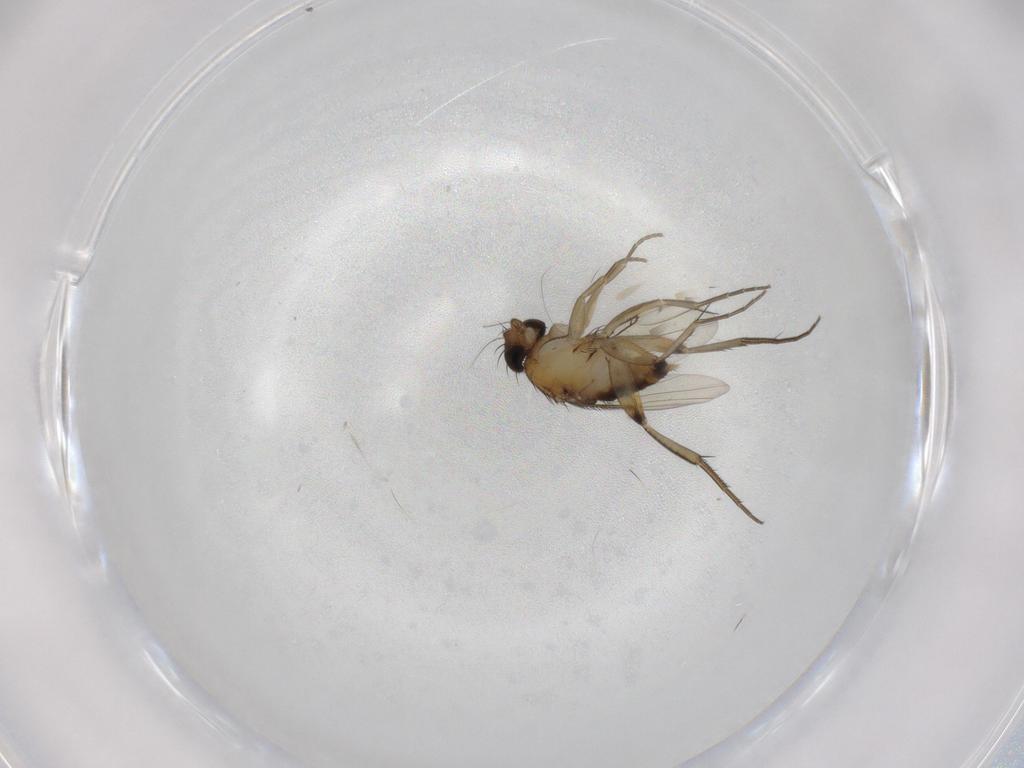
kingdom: Animalia
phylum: Arthropoda
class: Insecta
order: Diptera
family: Phoridae
